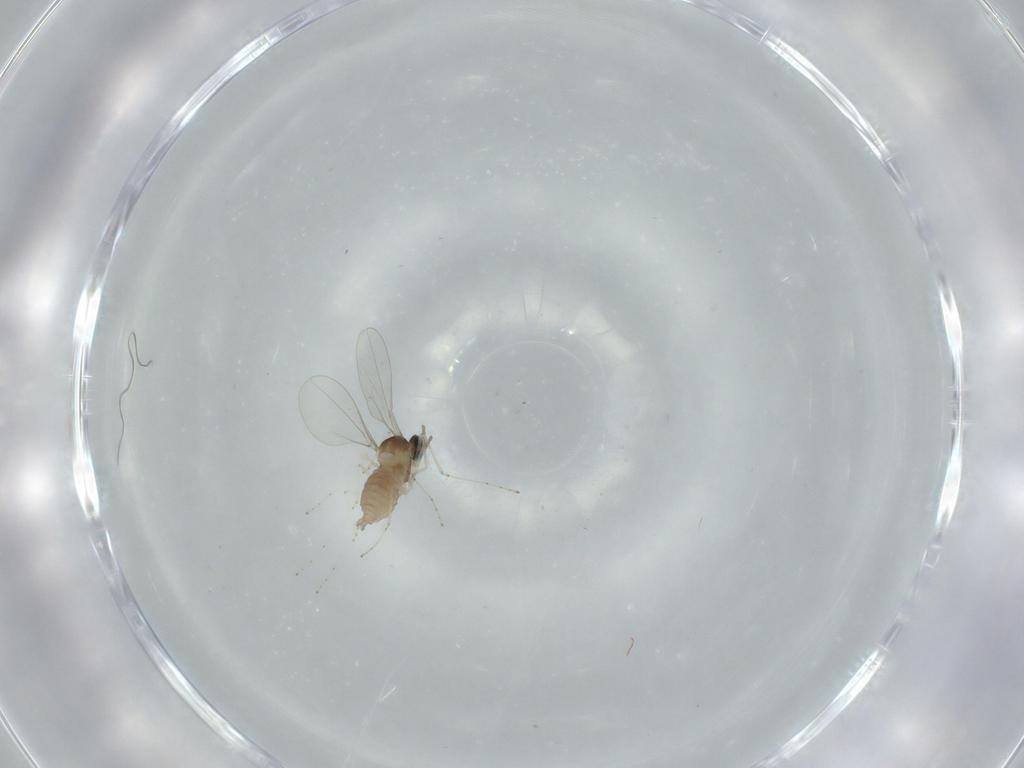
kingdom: Animalia
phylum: Arthropoda
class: Insecta
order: Diptera
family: Cecidomyiidae
